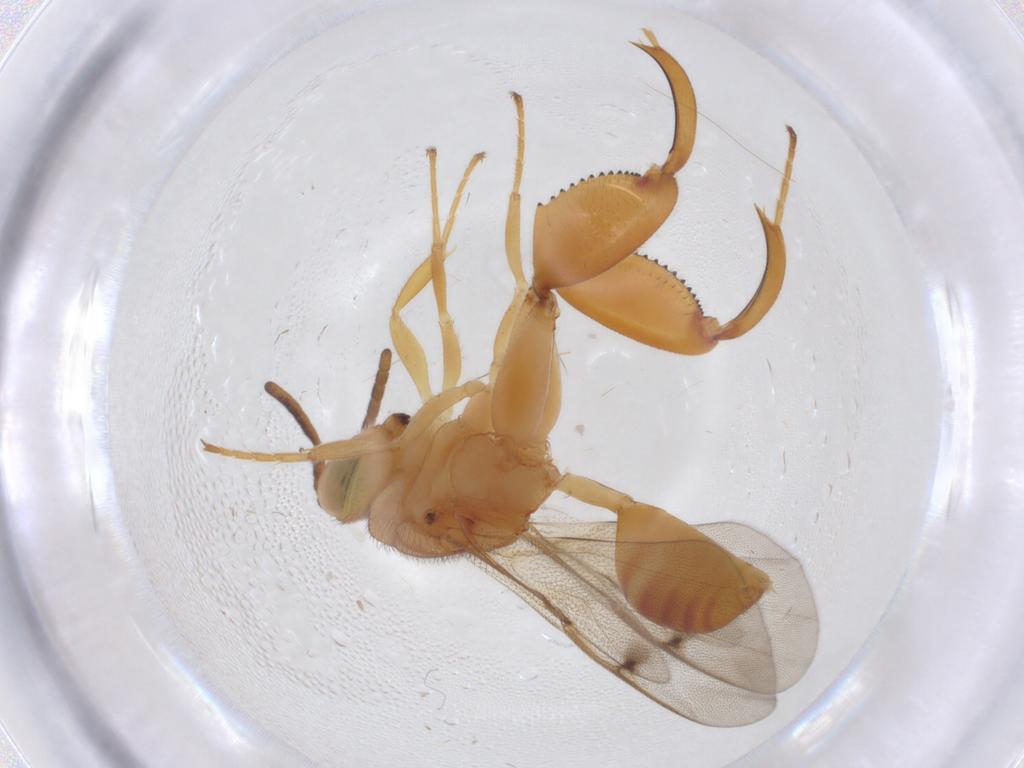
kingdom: Animalia
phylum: Arthropoda
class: Insecta
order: Hymenoptera
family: Chalcididae
